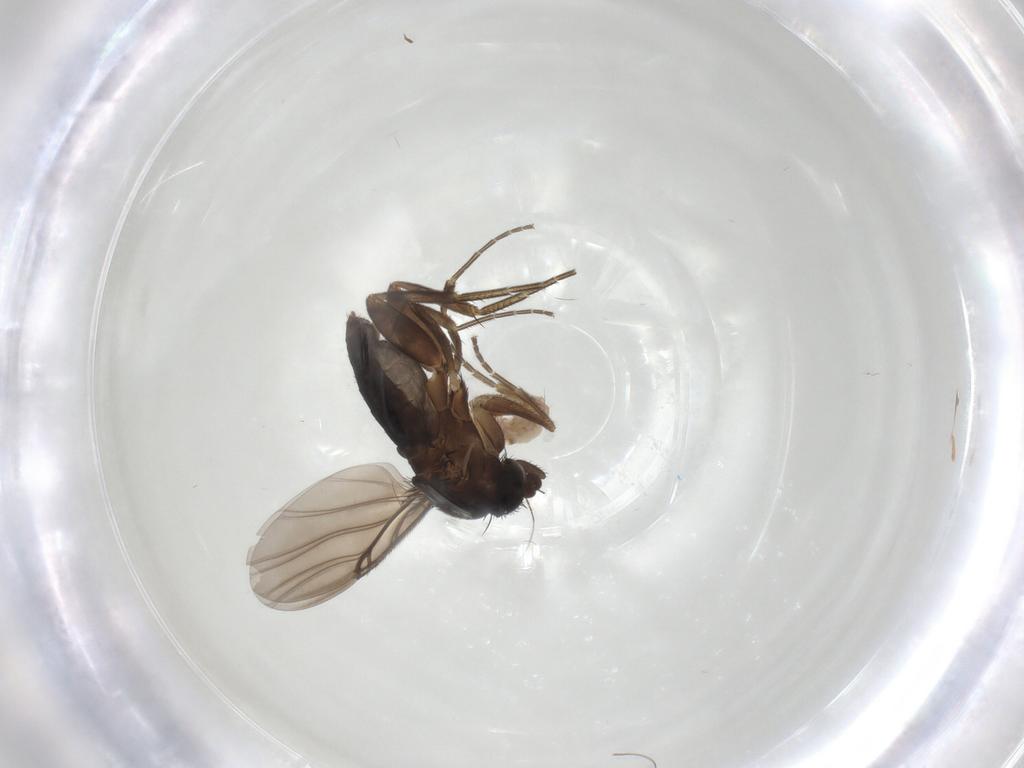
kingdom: Animalia
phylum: Arthropoda
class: Insecta
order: Diptera
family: Phoridae
